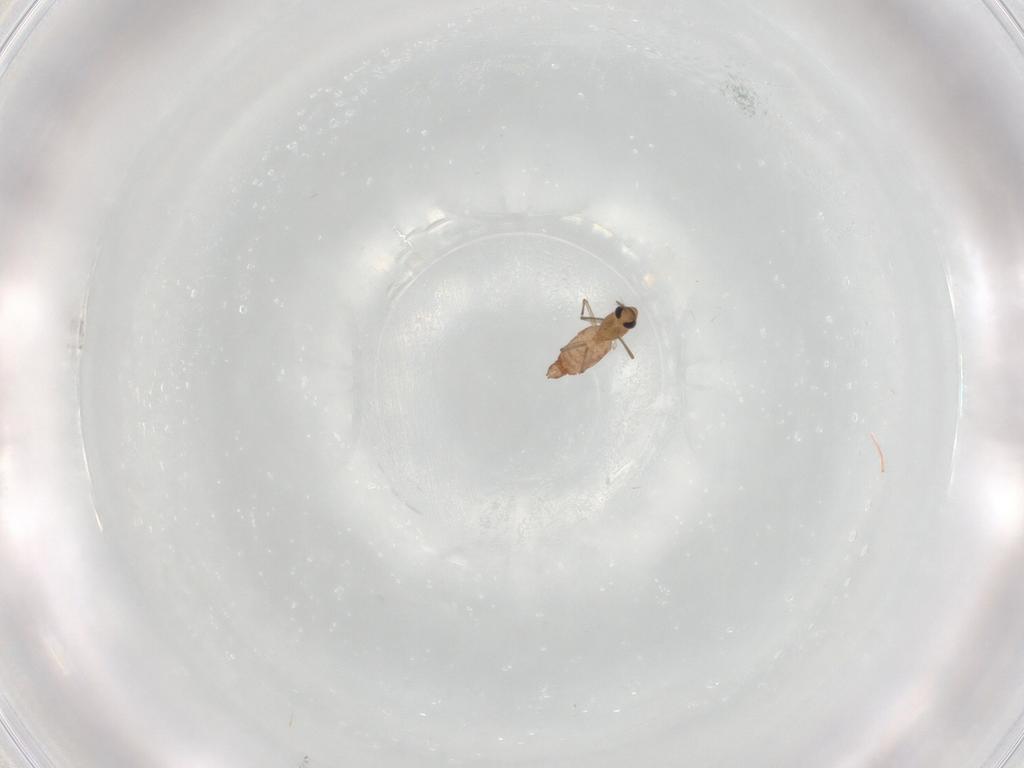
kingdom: Animalia
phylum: Arthropoda
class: Insecta
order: Diptera
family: Chironomidae
